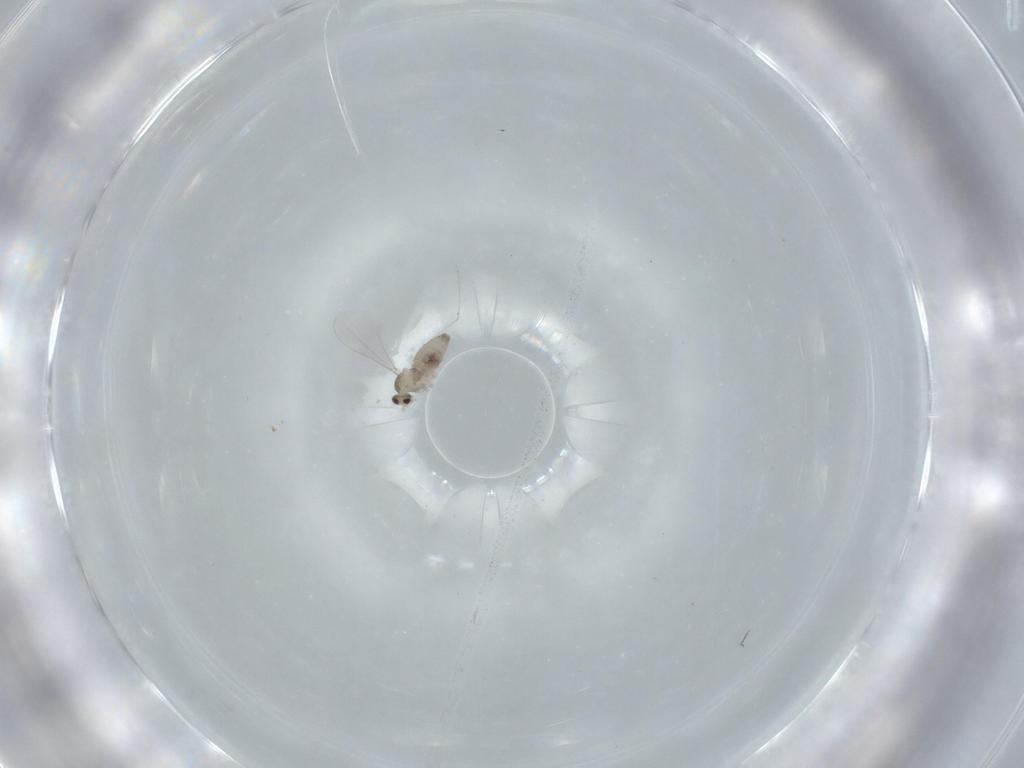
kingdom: Animalia
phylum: Arthropoda
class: Insecta
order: Diptera
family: Cecidomyiidae
